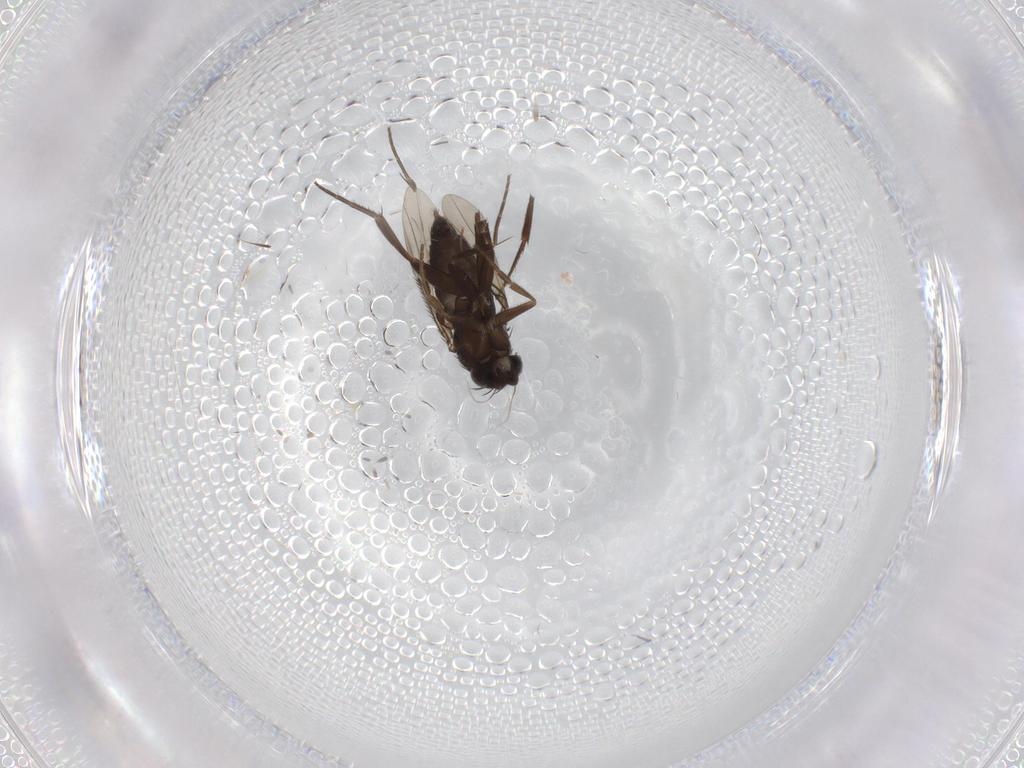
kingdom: Animalia
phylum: Arthropoda
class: Insecta
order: Diptera
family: Phoridae
